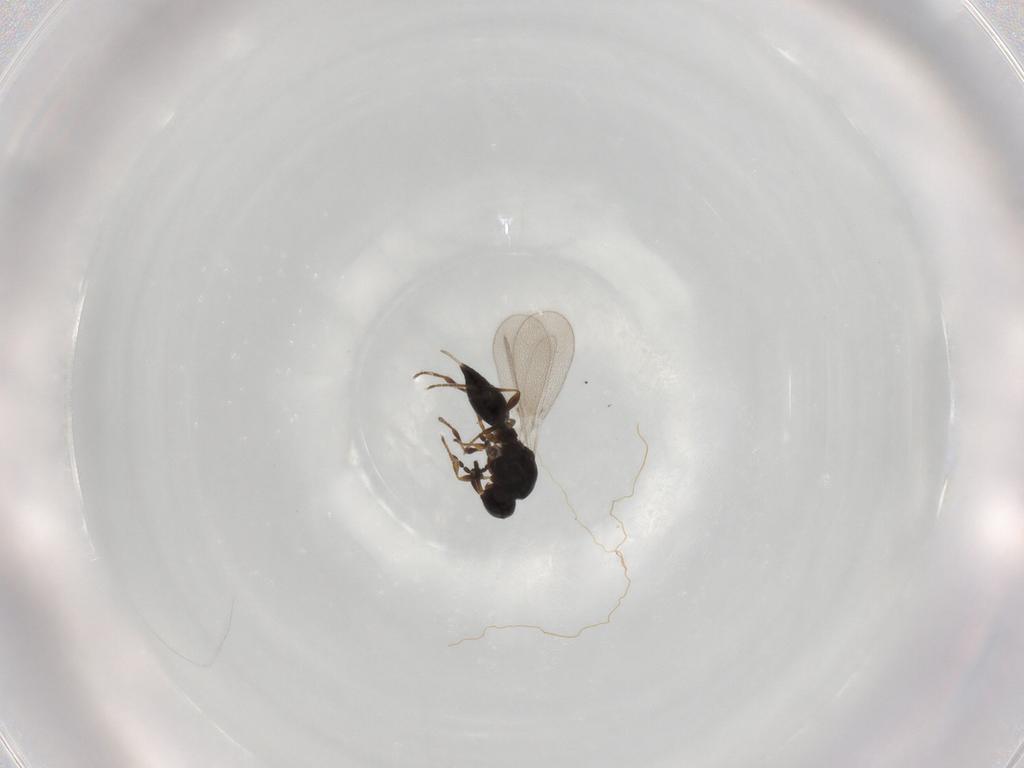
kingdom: Animalia
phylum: Arthropoda
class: Insecta
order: Diptera
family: Mythicomyiidae
